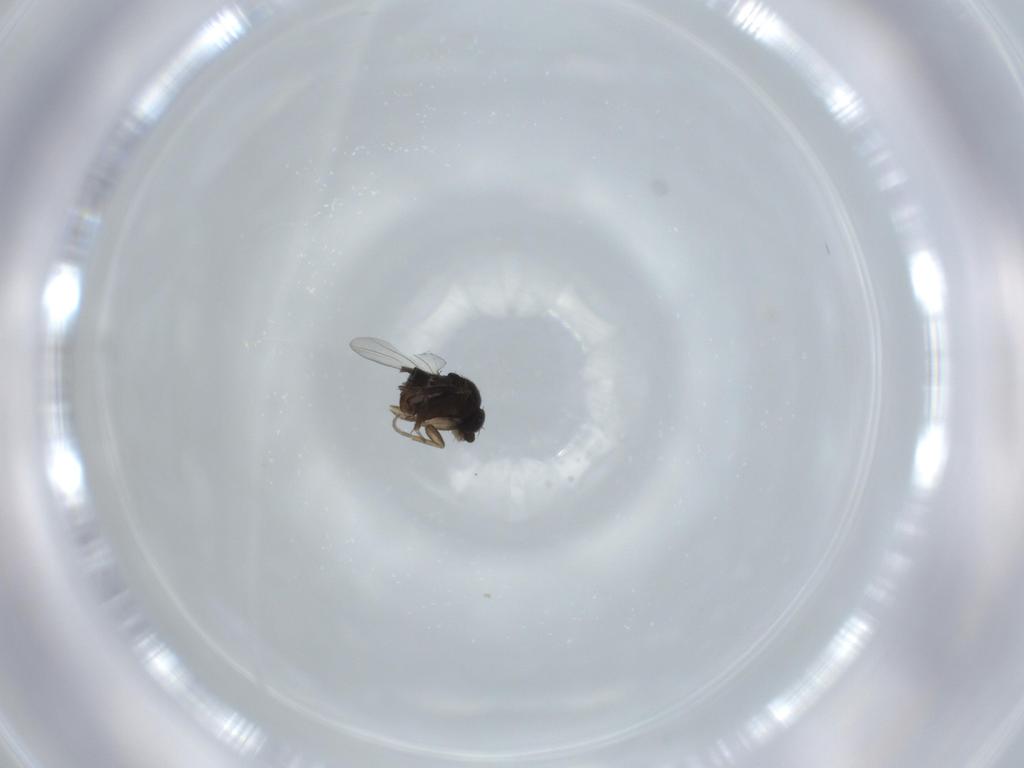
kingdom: Animalia
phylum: Arthropoda
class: Insecta
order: Diptera
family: Phoridae
